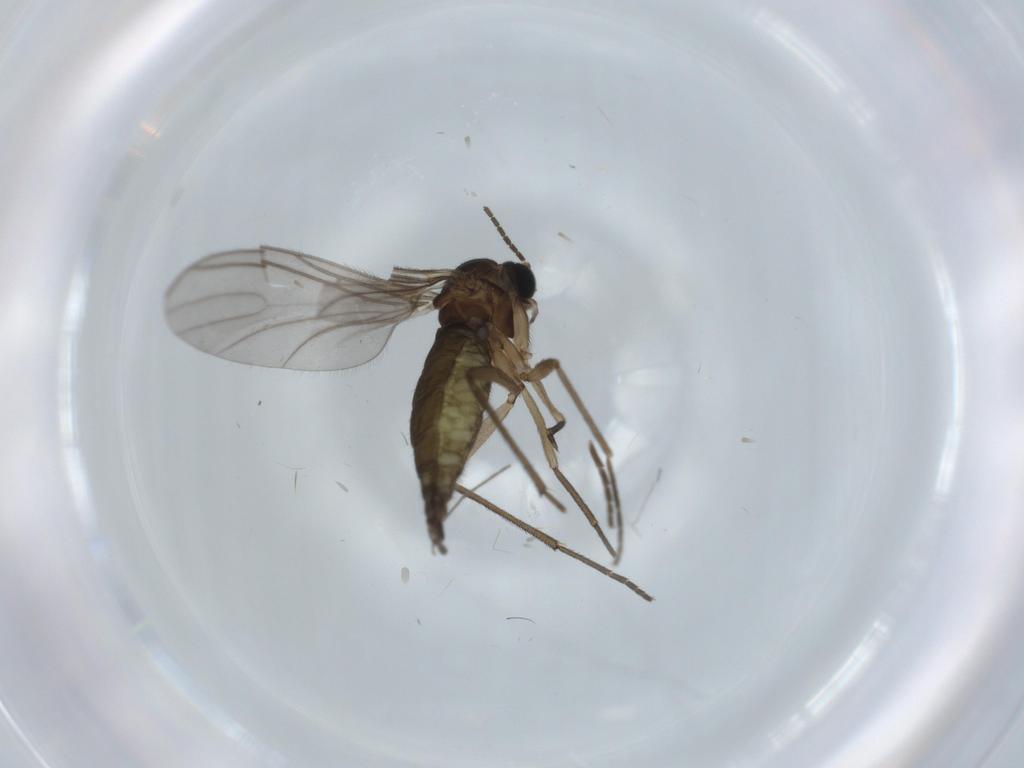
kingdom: Animalia
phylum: Arthropoda
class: Insecta
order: Diptera
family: Sciaridae
